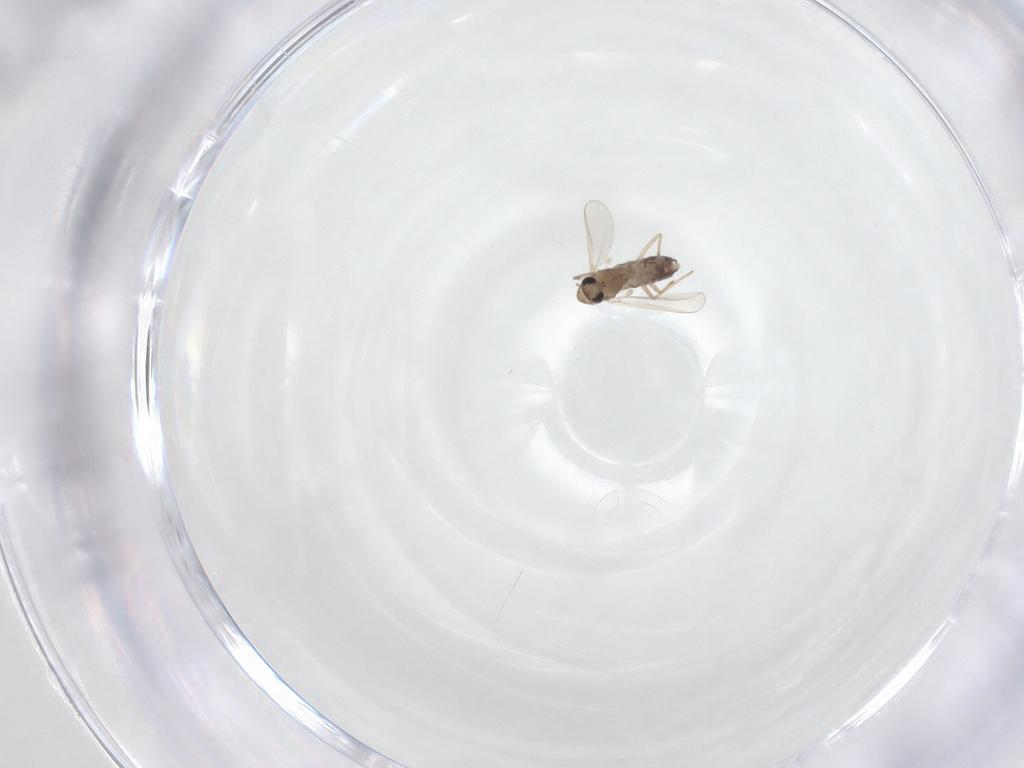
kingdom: Animalia
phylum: Arthropoda
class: Insecta
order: Diptera
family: Chironomidae
